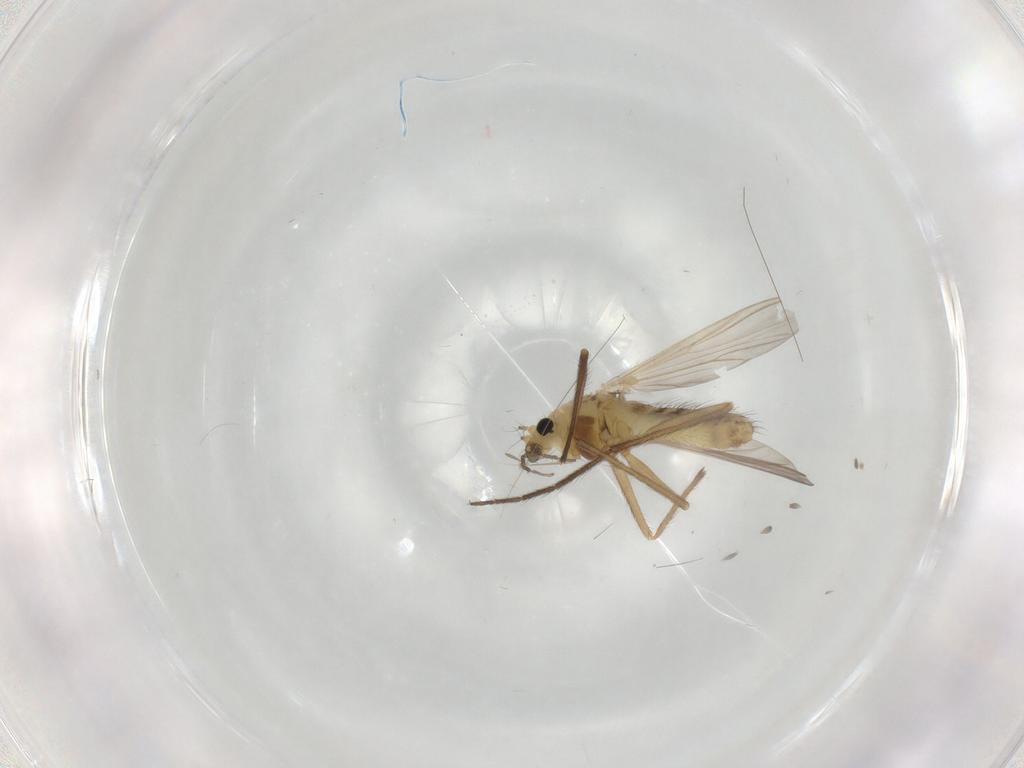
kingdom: Animalia
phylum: Arthropoda
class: Insecta
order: Diptera
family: Chironomidae
